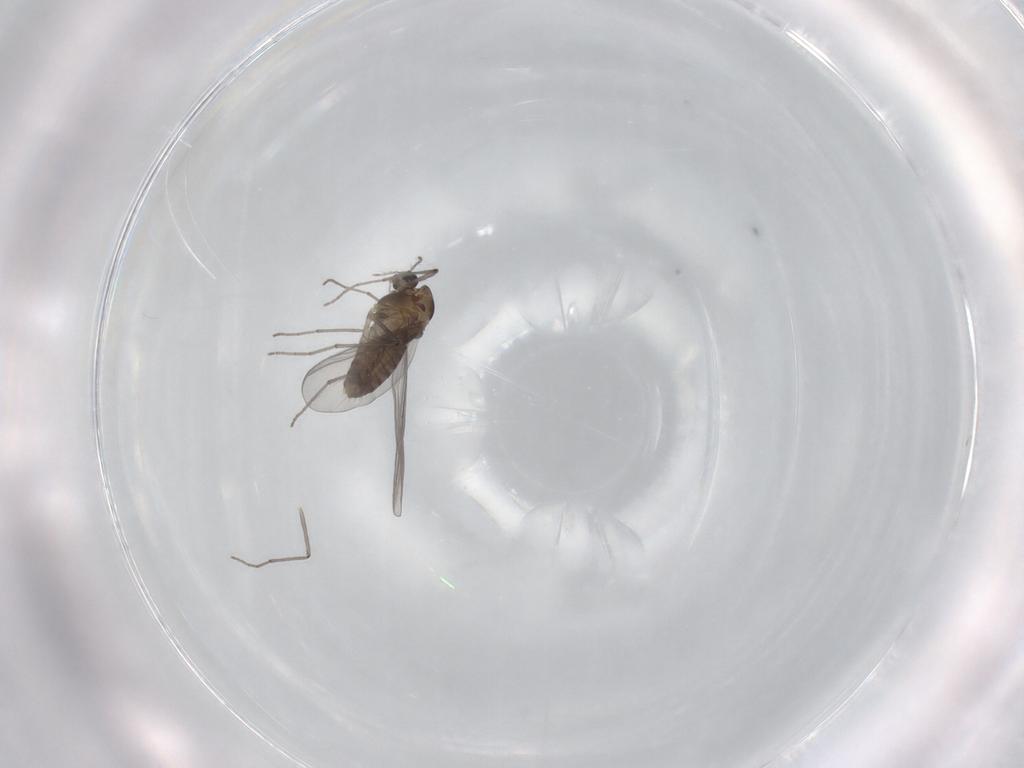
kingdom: Animalia
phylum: Arthropoda
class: Insecta
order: Diptera
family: Chironomidae
